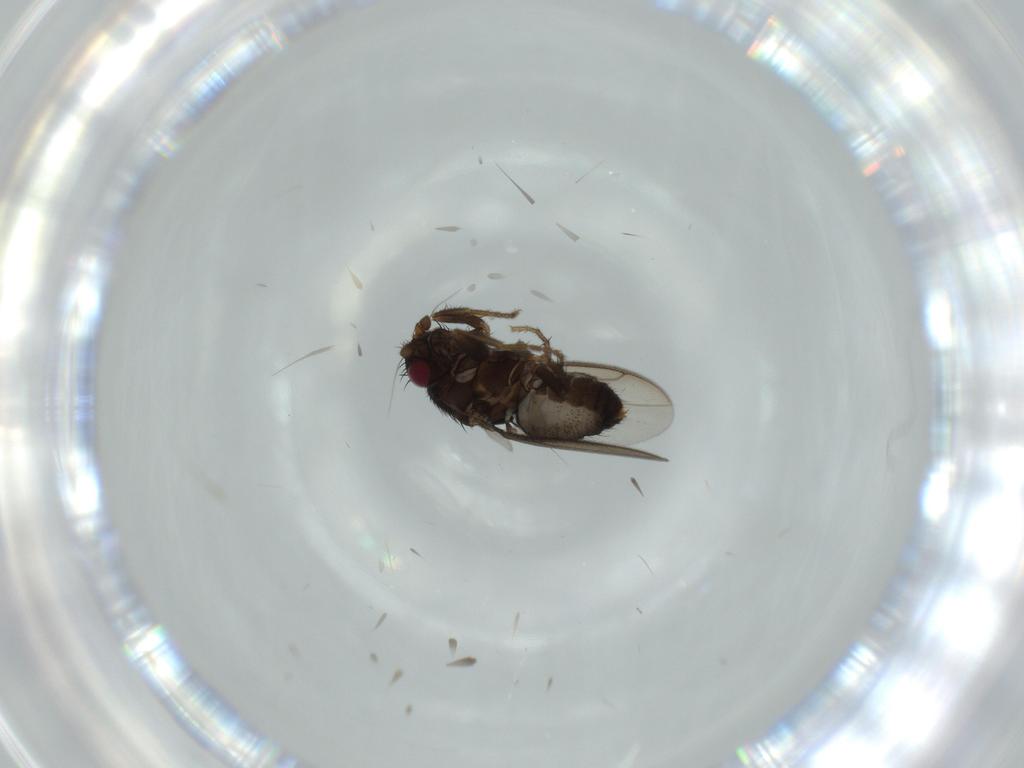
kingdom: Animalia
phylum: Arthropoda
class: Insecta
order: Diptera
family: Sphaeroceridae
